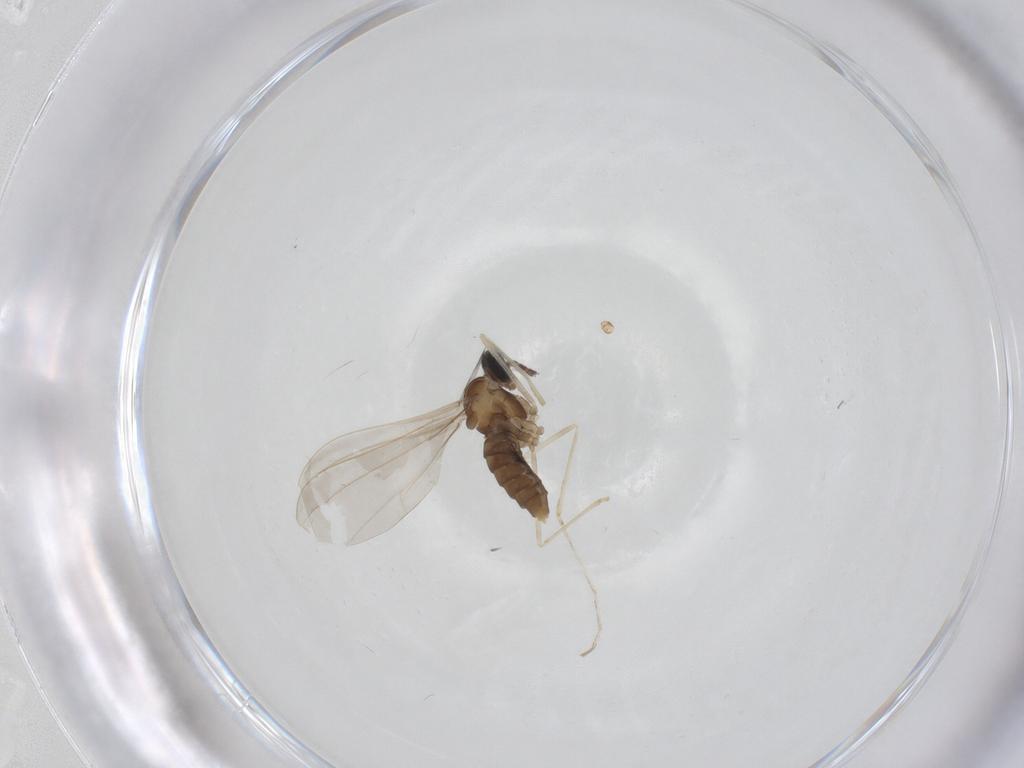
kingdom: Animalia
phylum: Arthropoda
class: Insecta
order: Diptera
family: Cecidomyiidae
